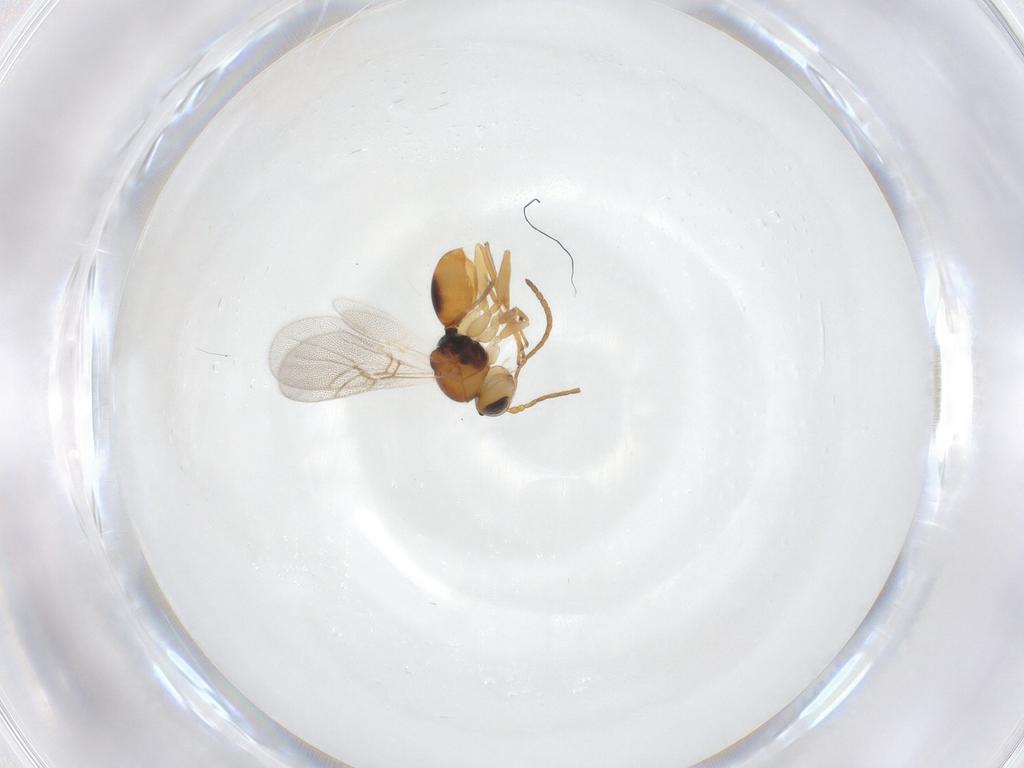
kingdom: Animalia
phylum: Arthropoda
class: Insecta
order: Hymenoptera
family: Cynipidae
